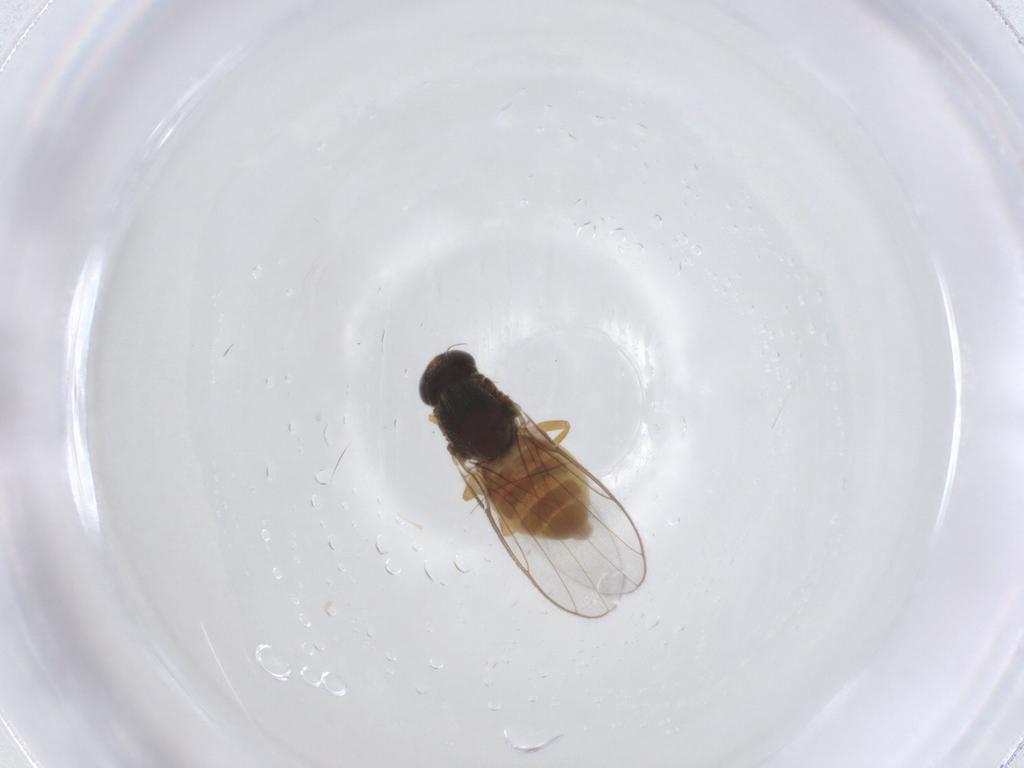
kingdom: Animalia
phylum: Arthropoda
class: Insecta
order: Diptera
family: Chloropidae
